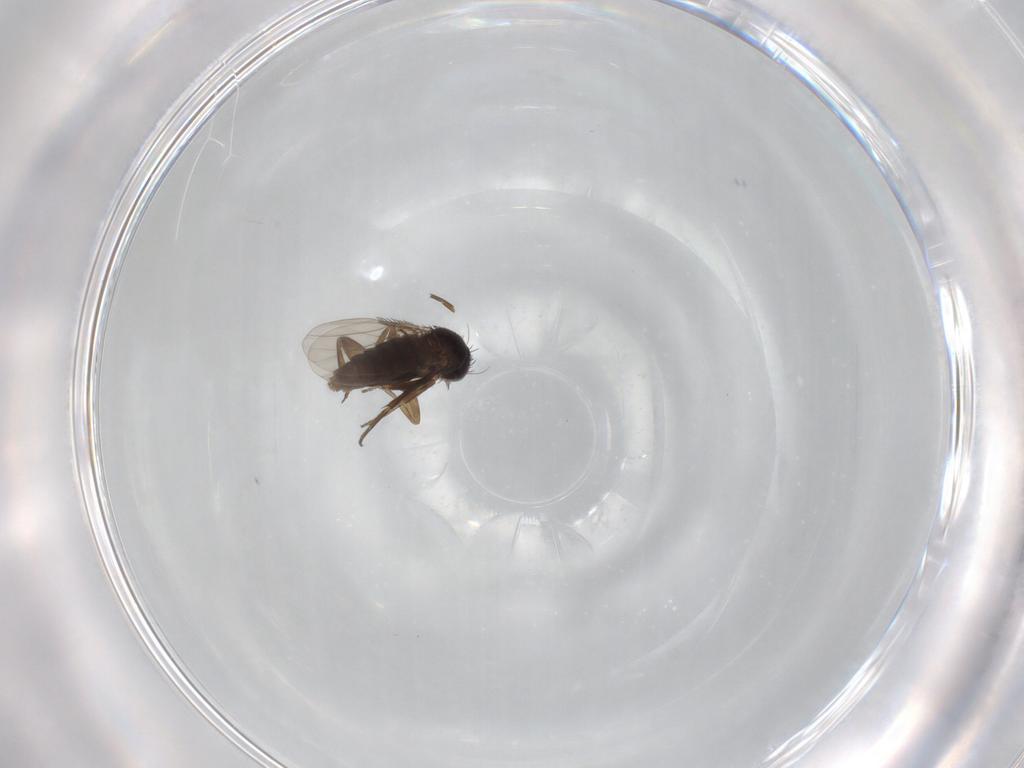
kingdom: Animalia
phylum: Arthropoda
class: Insecta
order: Diptera
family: Phoridae
